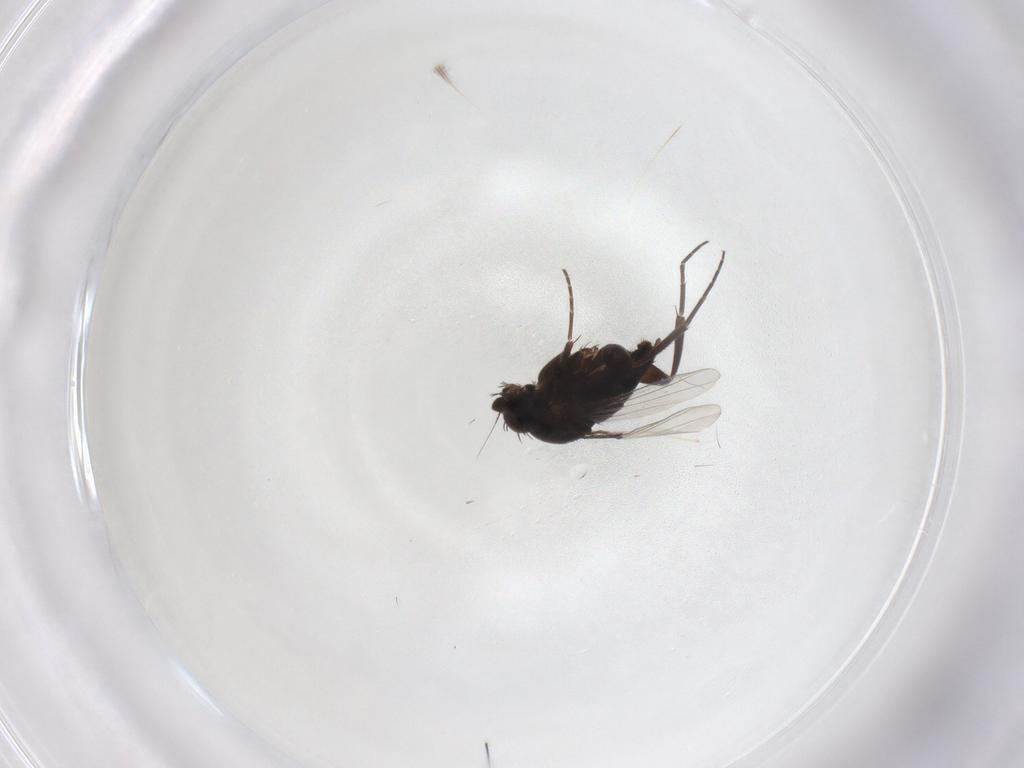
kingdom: Animalia
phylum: Arthropoda
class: Insecta
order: Diptera
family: Phoridae
